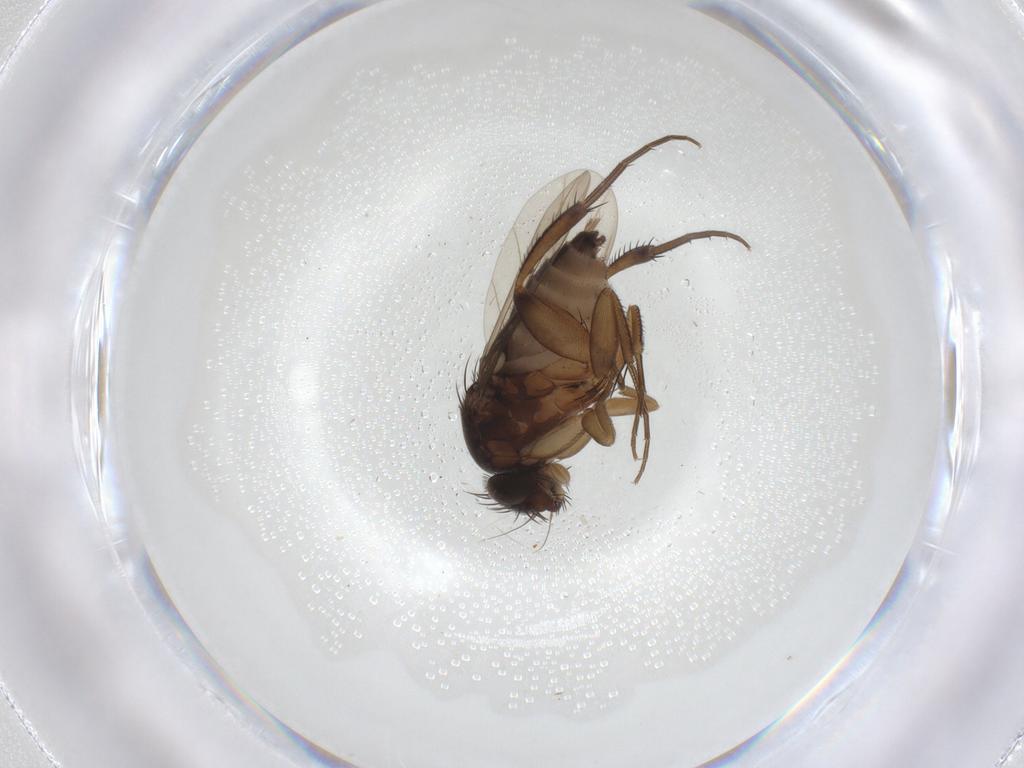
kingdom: Animalia
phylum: Arthropoda
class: Insecta
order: Diptera
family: Phoridae
